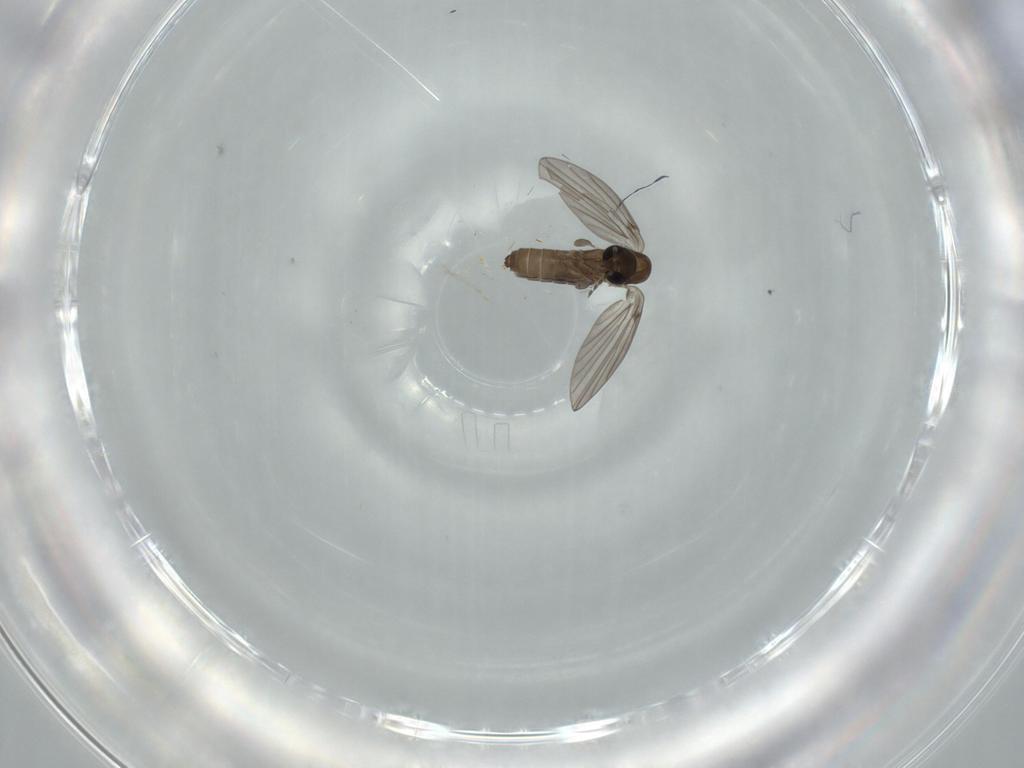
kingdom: Animalia
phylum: Arthropoda
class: Insecta
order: Diptera
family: Psychodidae
